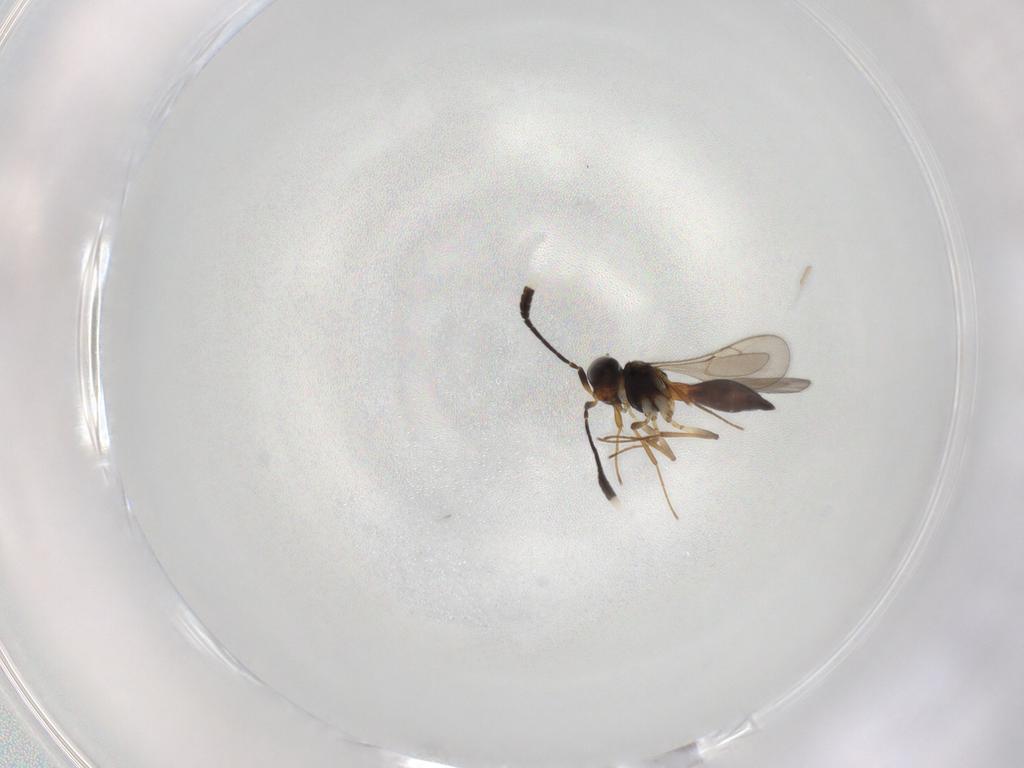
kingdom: Animalia
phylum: Arthropoda
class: Insecta
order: Hymenoptera
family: Scelionidae
